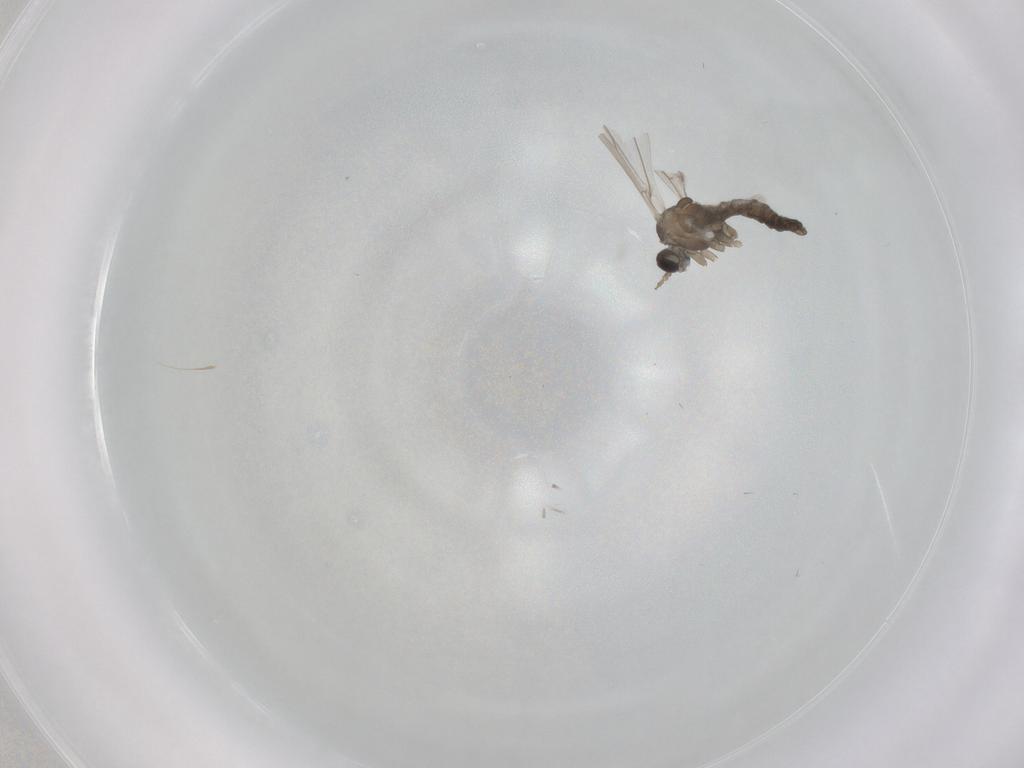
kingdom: Animalia
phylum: Arthropoda
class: Insecta
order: Diptera
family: Cecidomyiidae
